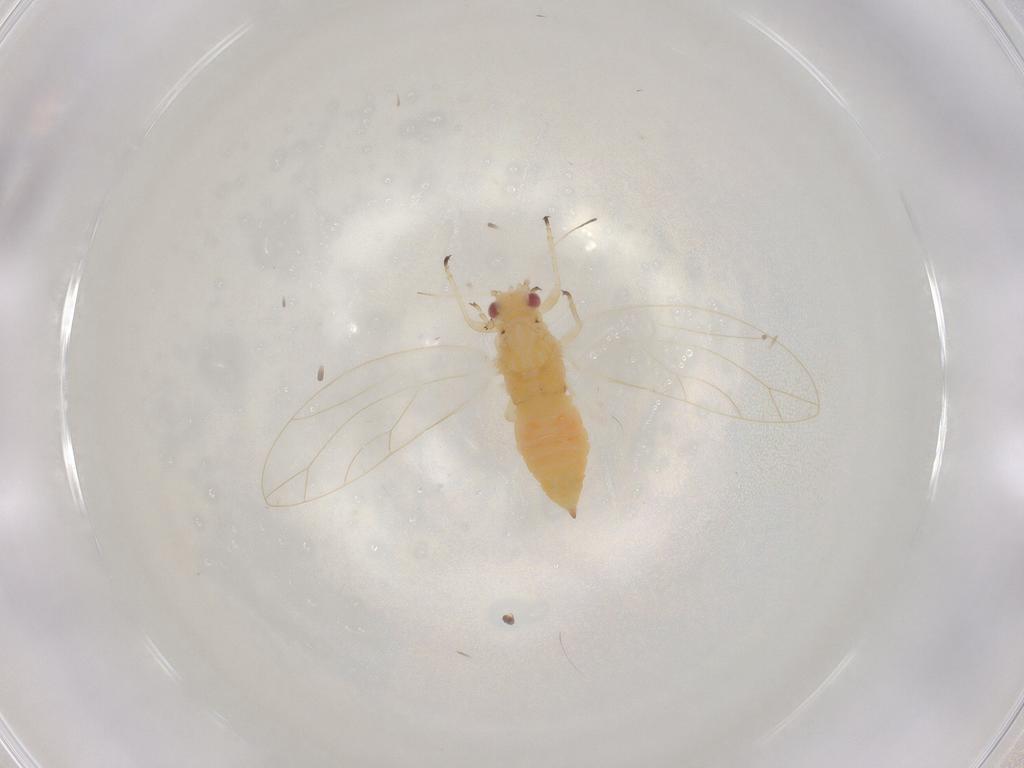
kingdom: Animalia
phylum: Arthropoda
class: Insecta
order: Hemiptera
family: Triozidae
